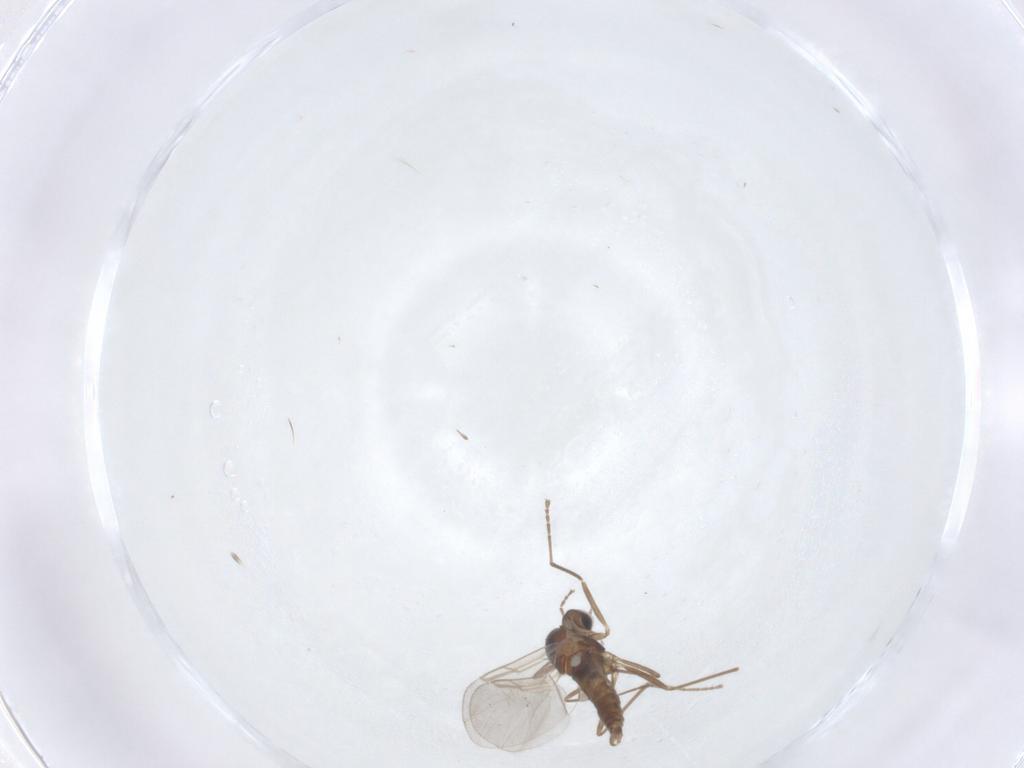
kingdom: Animalia
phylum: Arthropoda
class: Insecta
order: Diptera
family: Cecidomyiidae
